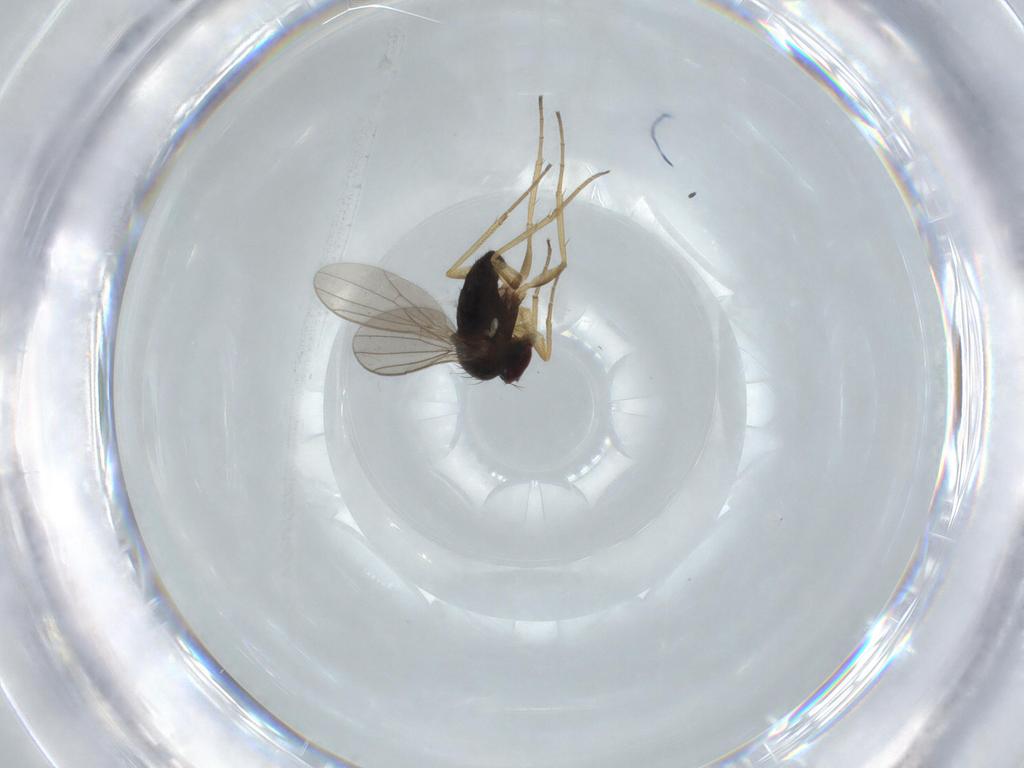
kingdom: Animalia
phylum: Arthropoda
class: Insecta
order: Diptera
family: Dolichopodidae
